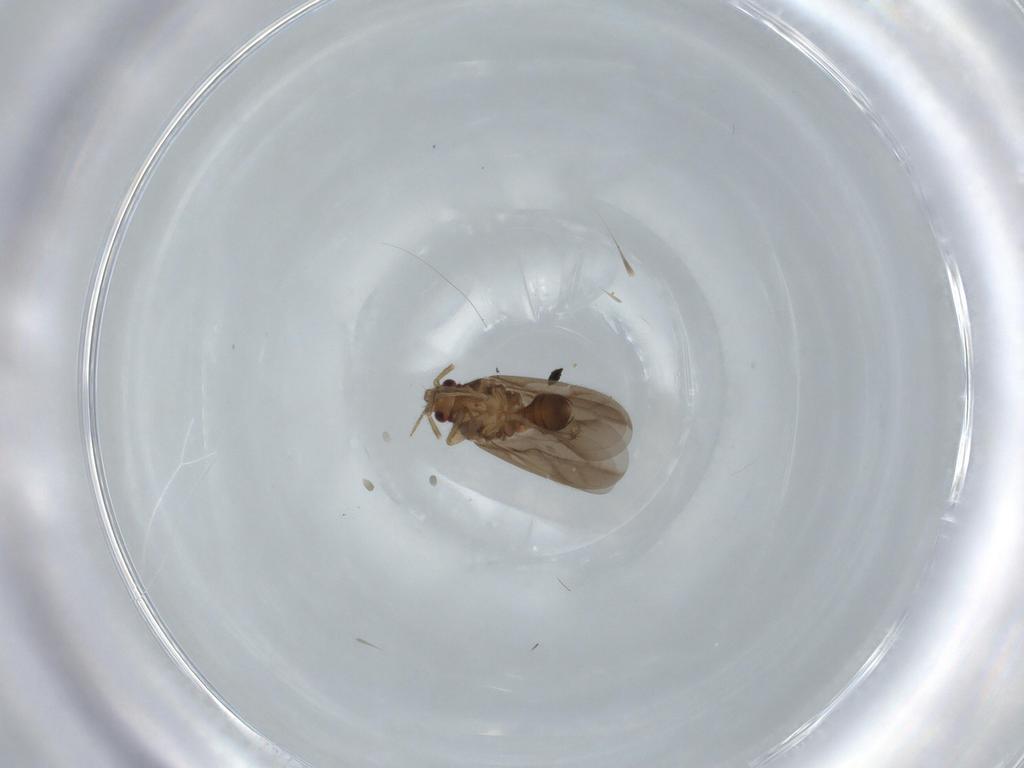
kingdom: Animalia
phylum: Arthropoda
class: Insecta
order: Hemiptera
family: Ceratocombidae
